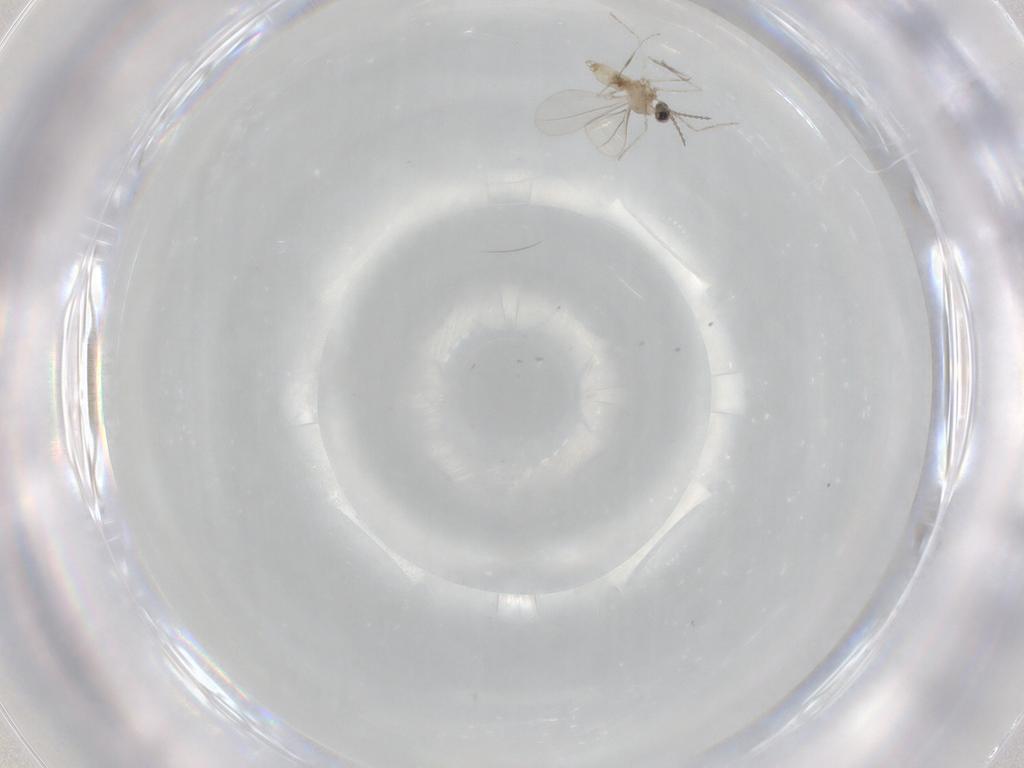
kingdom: Animalia
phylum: Arthropoda
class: Insecta
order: Diptera
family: Cecidomyiidae
